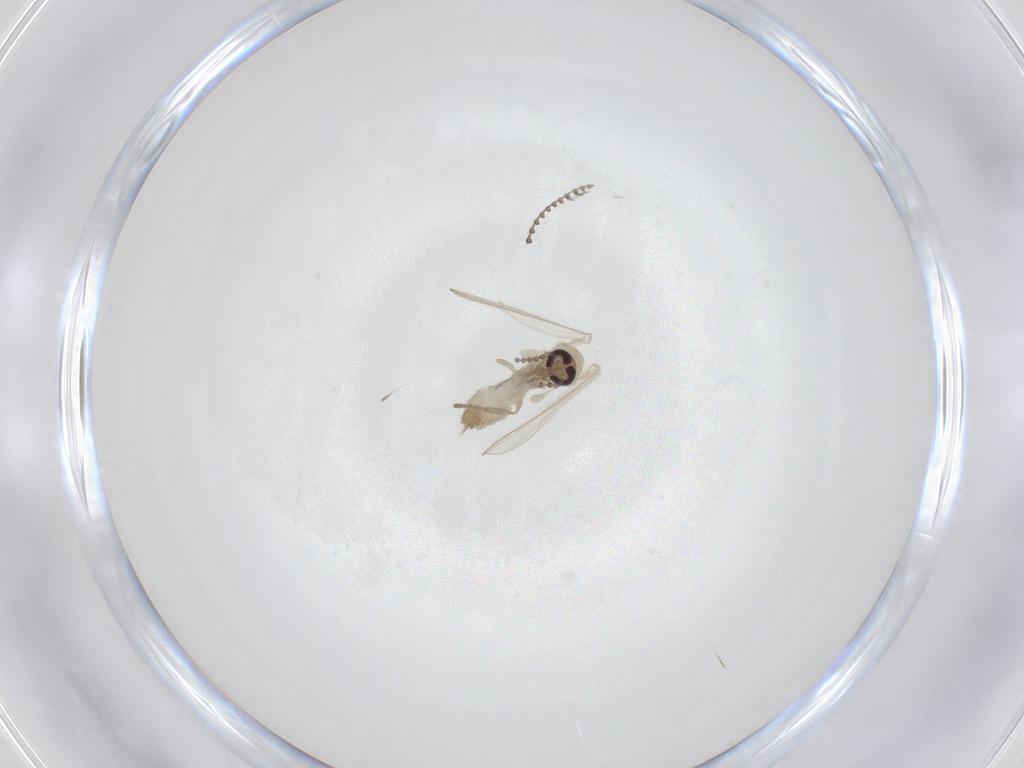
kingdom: Animalia
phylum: Arthropoda
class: Insecta
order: Diptera
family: Psychodidae
